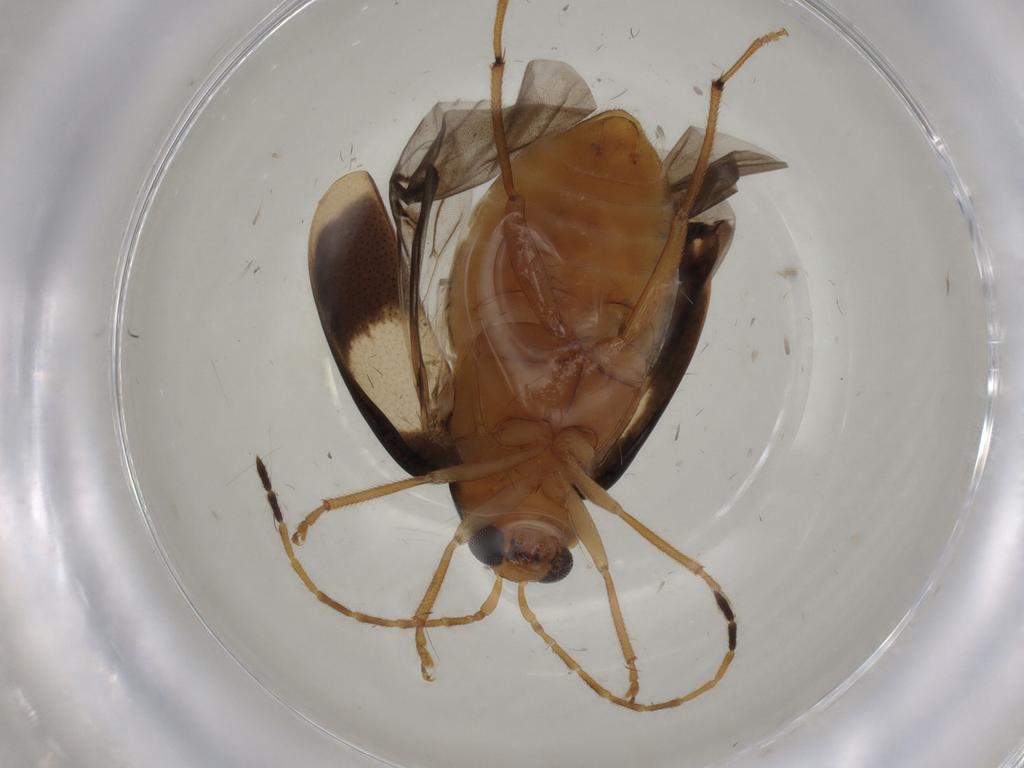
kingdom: Animalia
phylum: Arthropoda
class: Insecta
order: Coleoptera
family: Chrysomelidae
